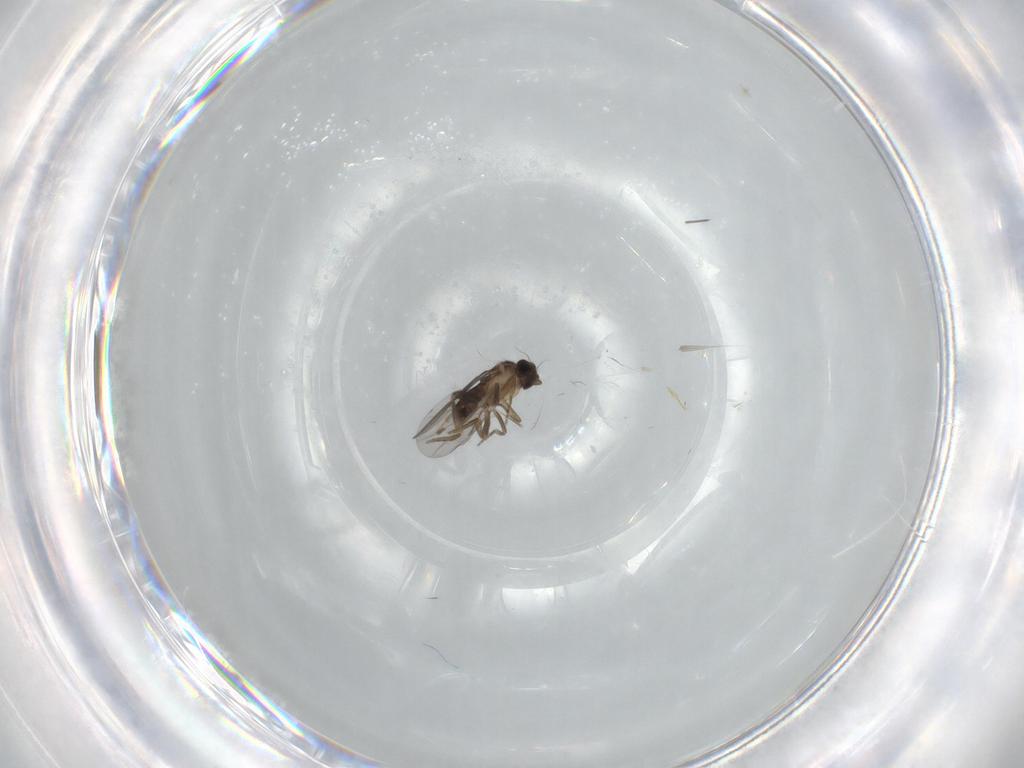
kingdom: Animalia
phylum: Arthropoda
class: Insecta
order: Diptera
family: Cecidomyiidae
